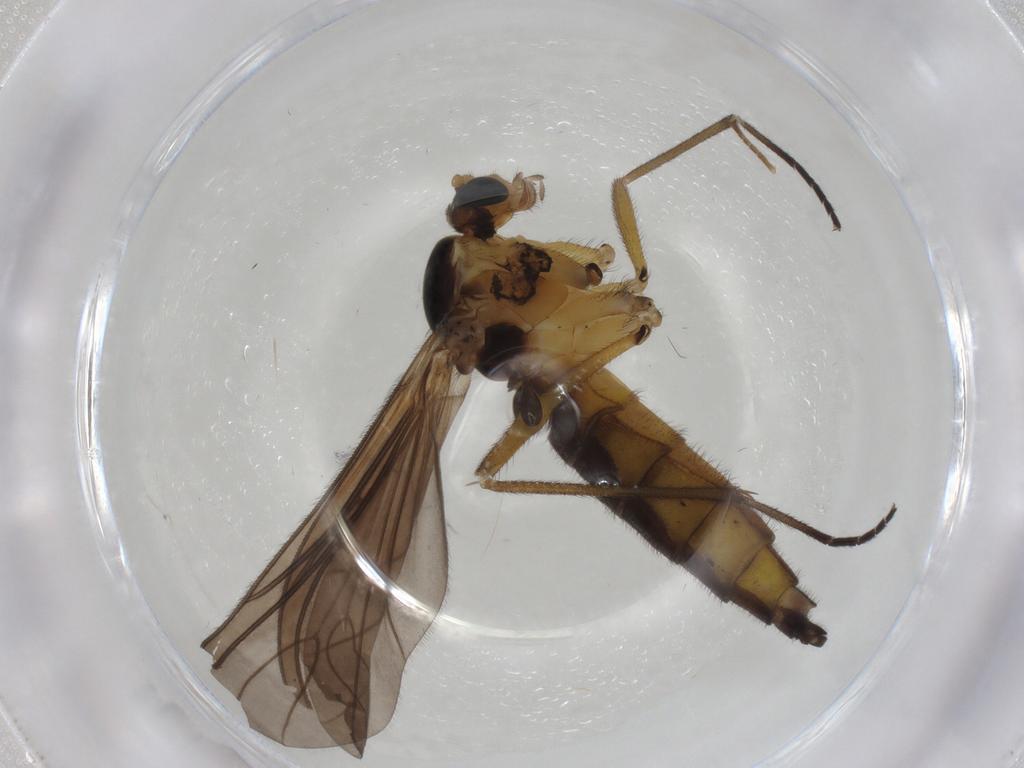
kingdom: Animalia
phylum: Arthropoda
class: Insecta
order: Diptera
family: Sciaridae
